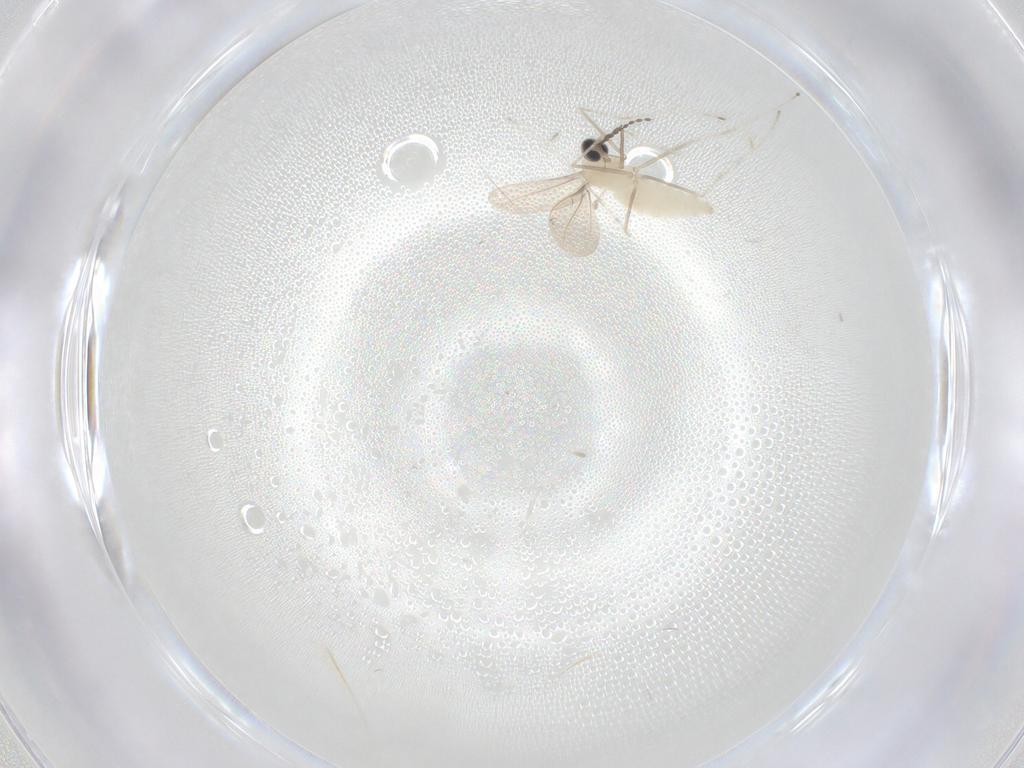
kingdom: Animalia
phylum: Arthropoda
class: Insecta
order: Diptera
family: Cecidomyiidae
